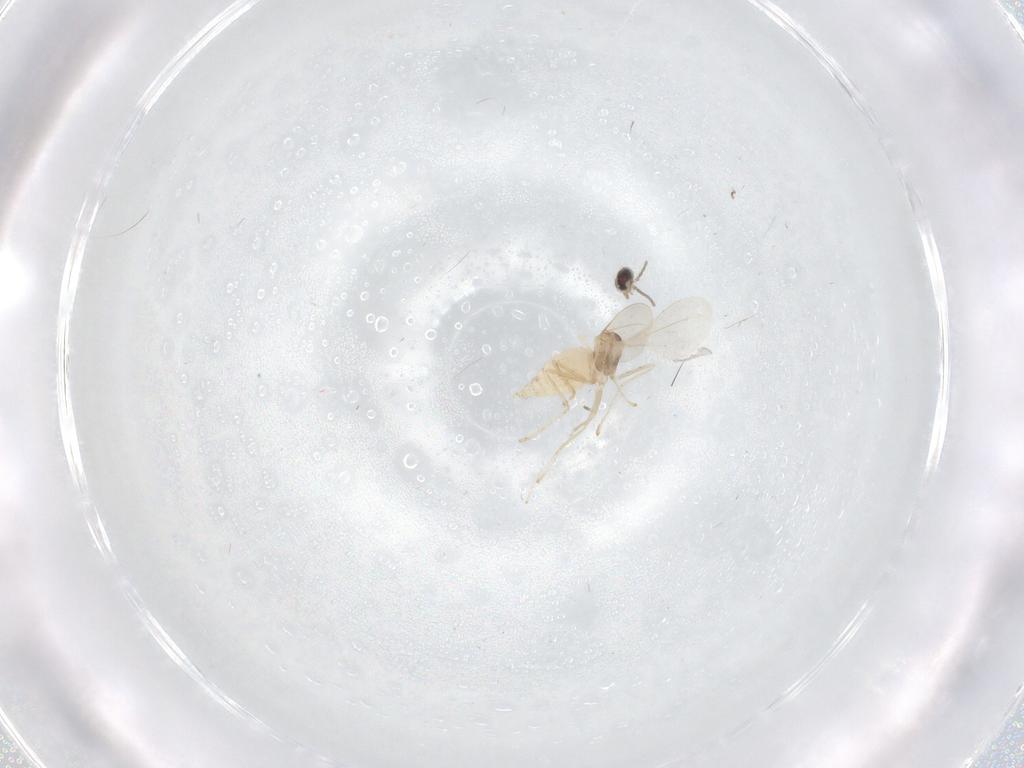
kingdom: Animalia
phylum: Arthropoda
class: Insecta
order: Diptera
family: Cecidomyiidae
